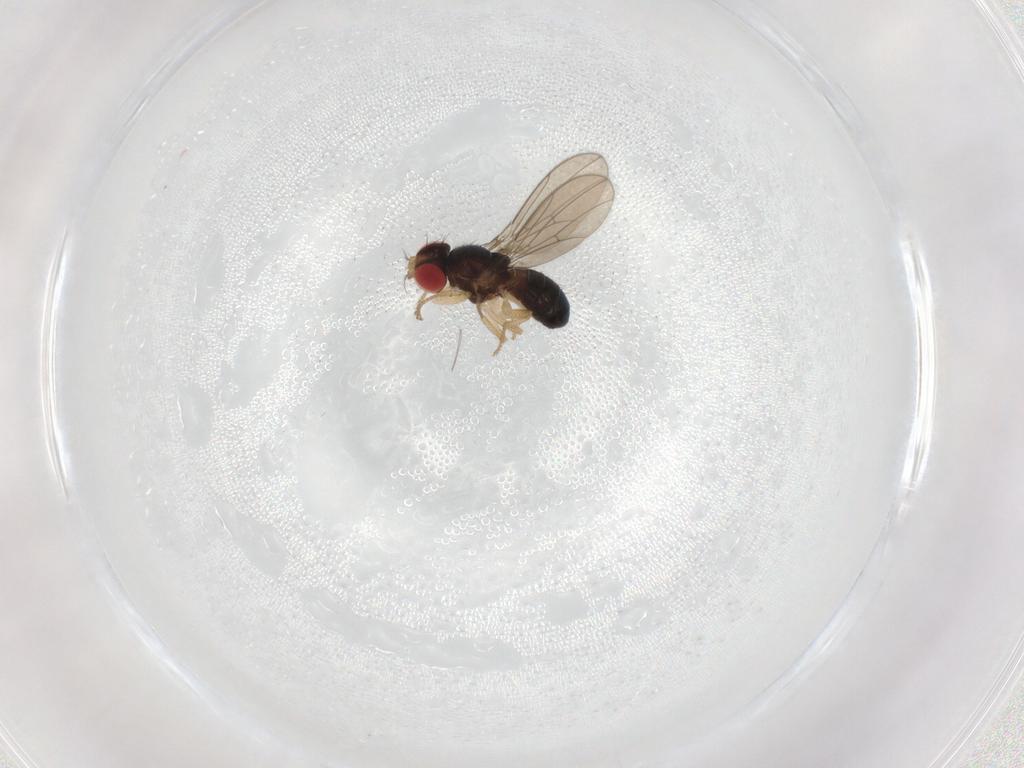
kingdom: Animalia
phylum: Arthropoda
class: Insecta
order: Diptera
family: Drosophilidae
